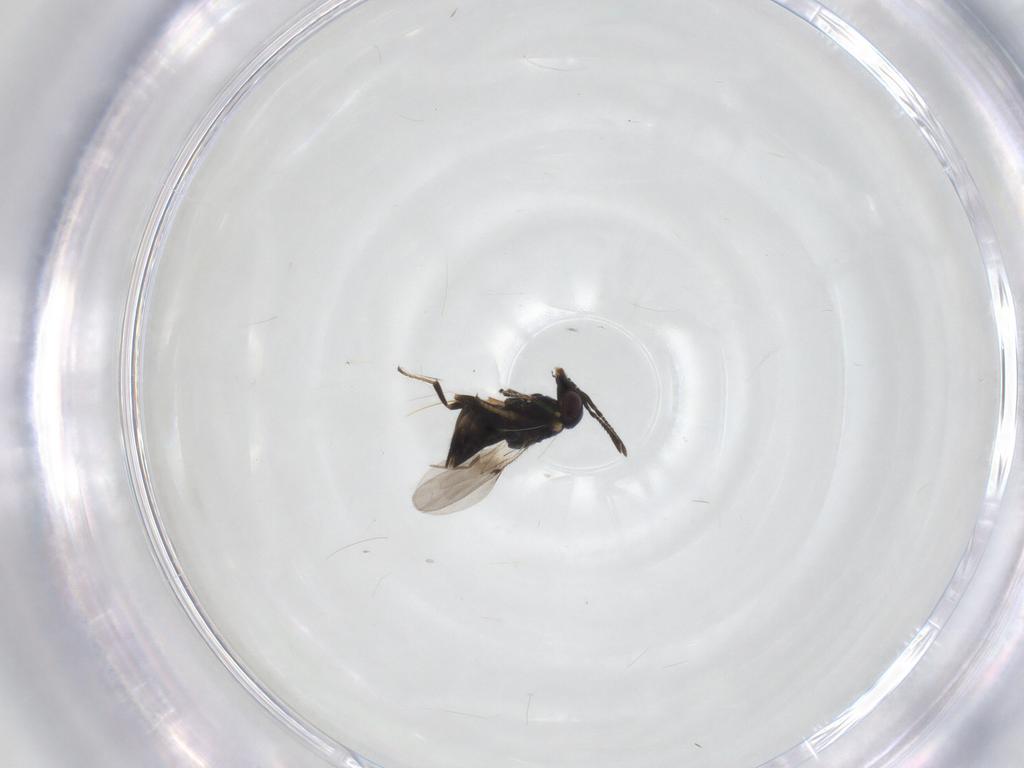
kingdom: Animalia
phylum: Arthropoda
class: Insecta
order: Hymenoptera
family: Encyrtidae
